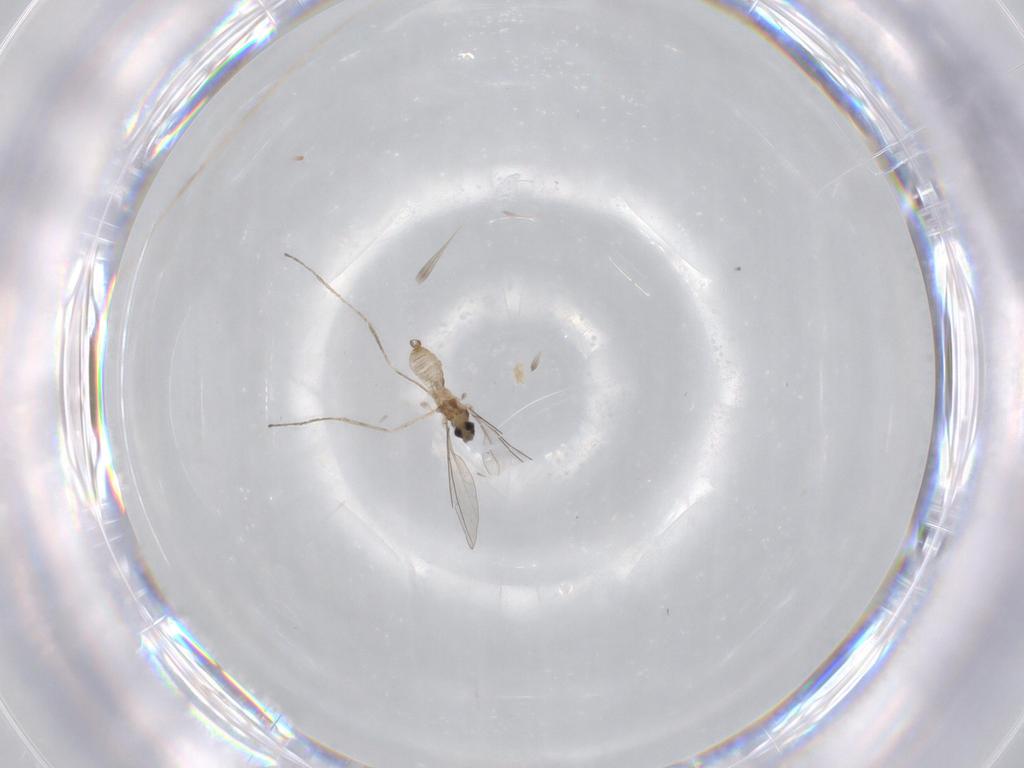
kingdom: Animalia
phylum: Arthropoda
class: Insecta
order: Diptera
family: Cecidomyiidae
